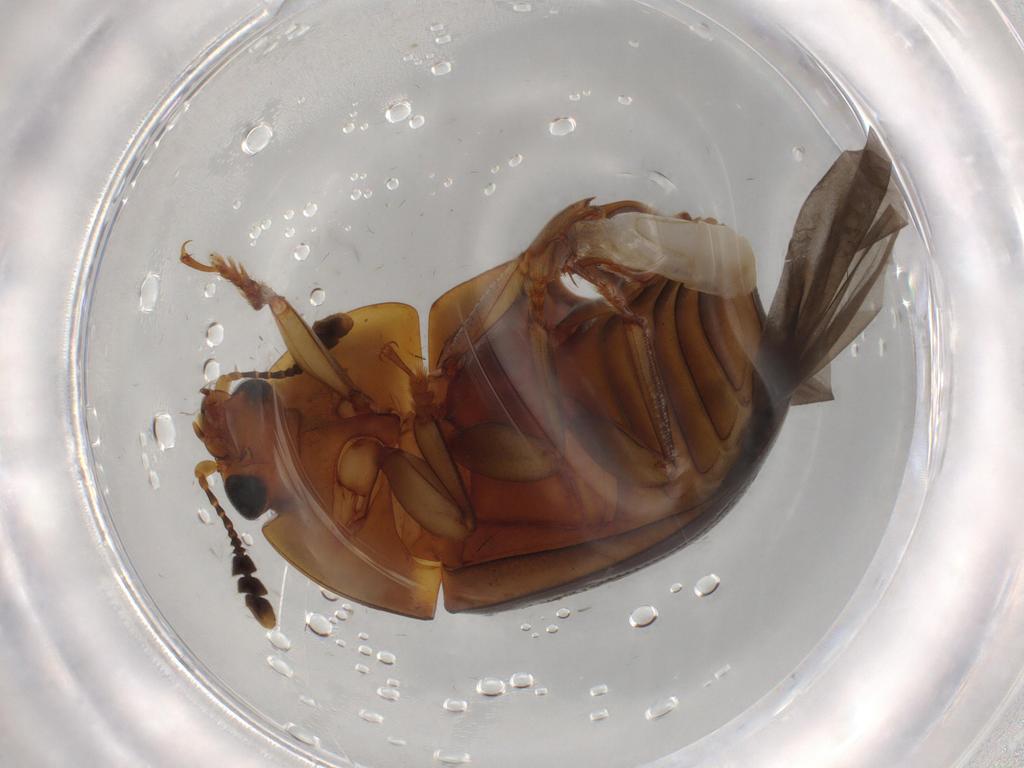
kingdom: Animalia
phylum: Arthropoda
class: Insecta
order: Coleoptera
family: Nitidulidae
